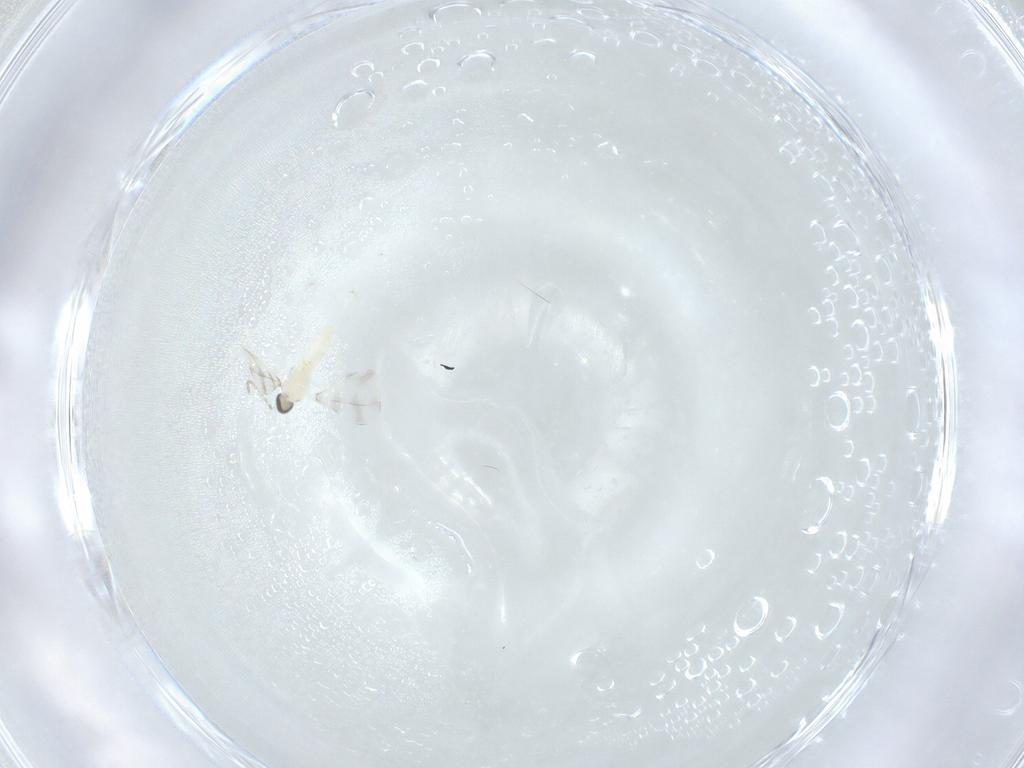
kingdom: Animalia
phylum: Arthropoda
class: Insecta
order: Diptera
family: Cecidomyiidae
